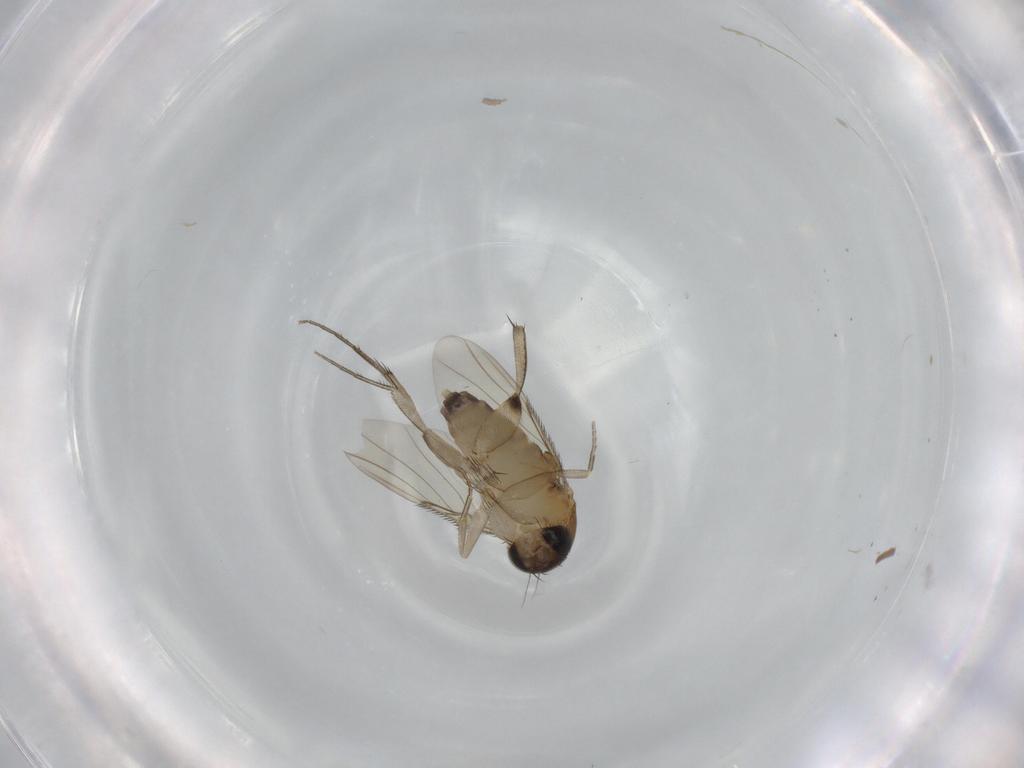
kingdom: Animalia
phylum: Arthropoda
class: Insecta
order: Diptera
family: Phoridae
